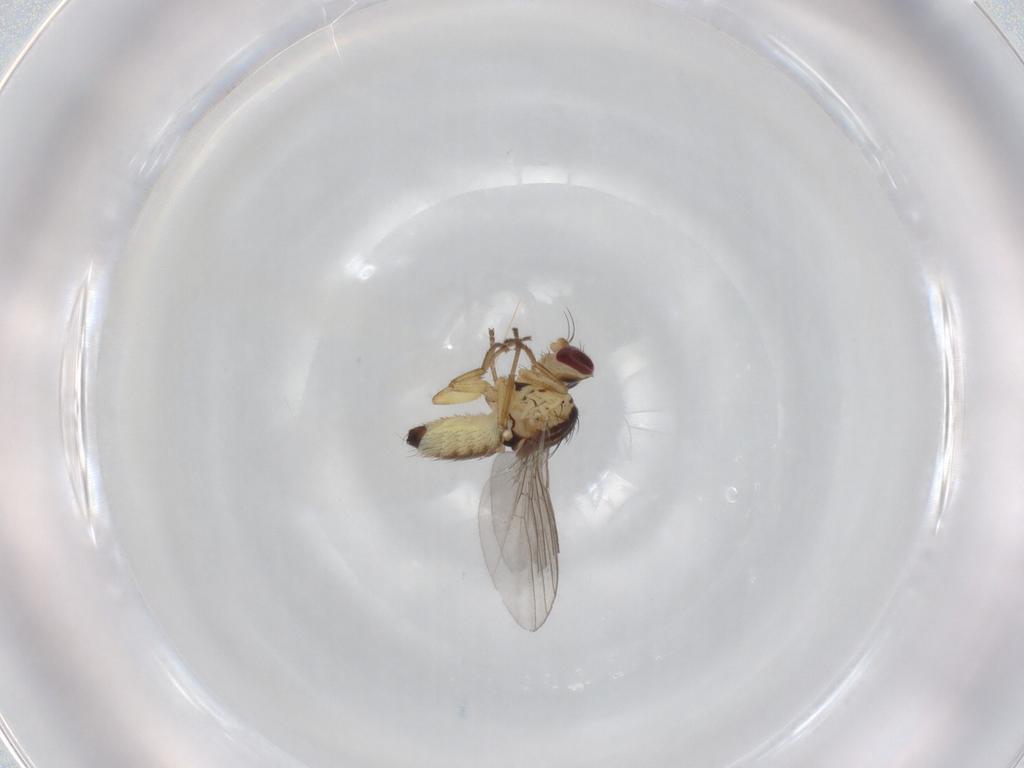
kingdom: Animalia
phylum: Arthropoda
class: Insecta
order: Diptera
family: Agromyzidae
